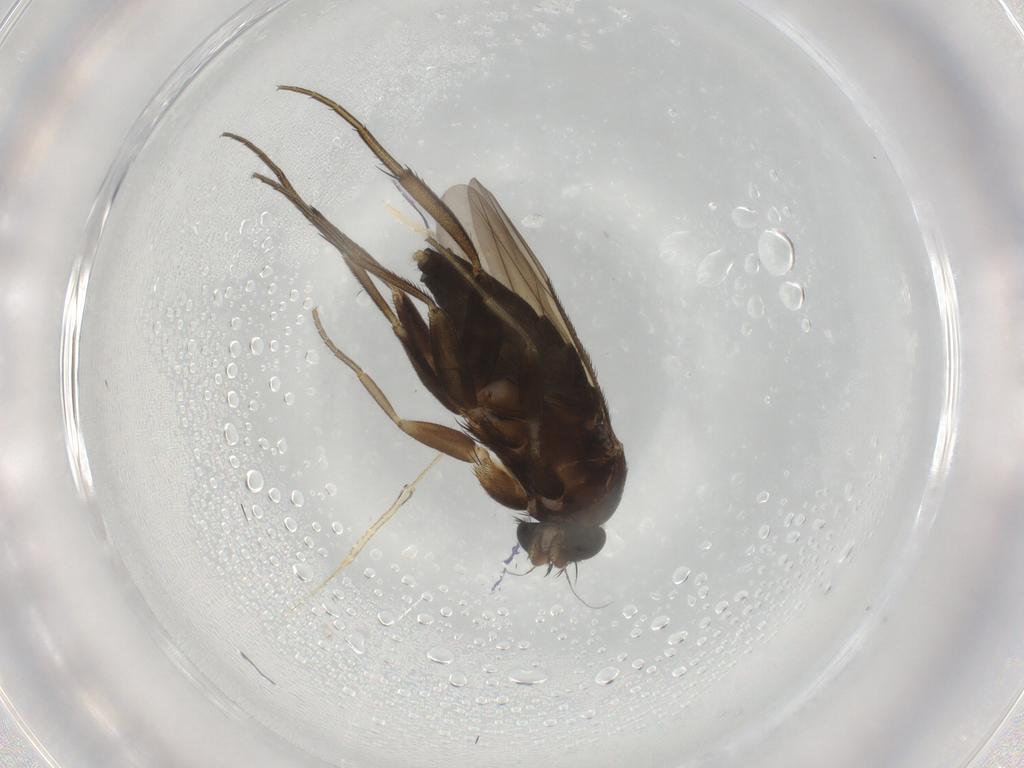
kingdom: Animalia
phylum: Arthropoda
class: Insecta
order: Diptera
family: Phoridae
